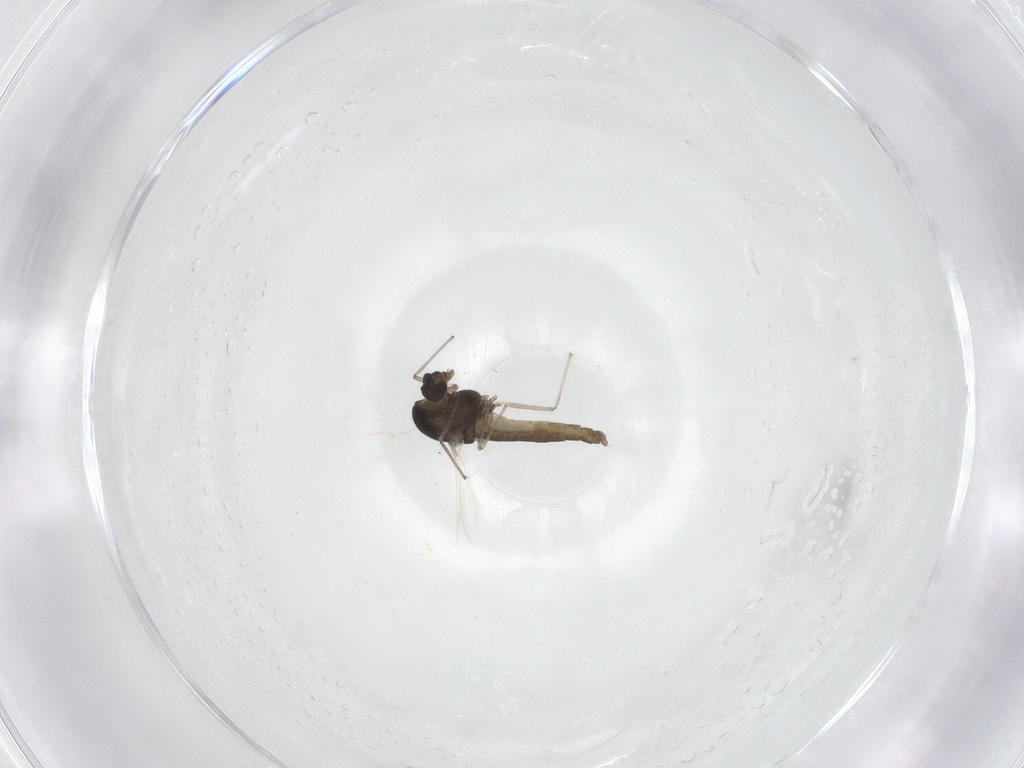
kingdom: Animalia
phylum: Arthropoda
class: Insecta
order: Diptera
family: Chironomidae
